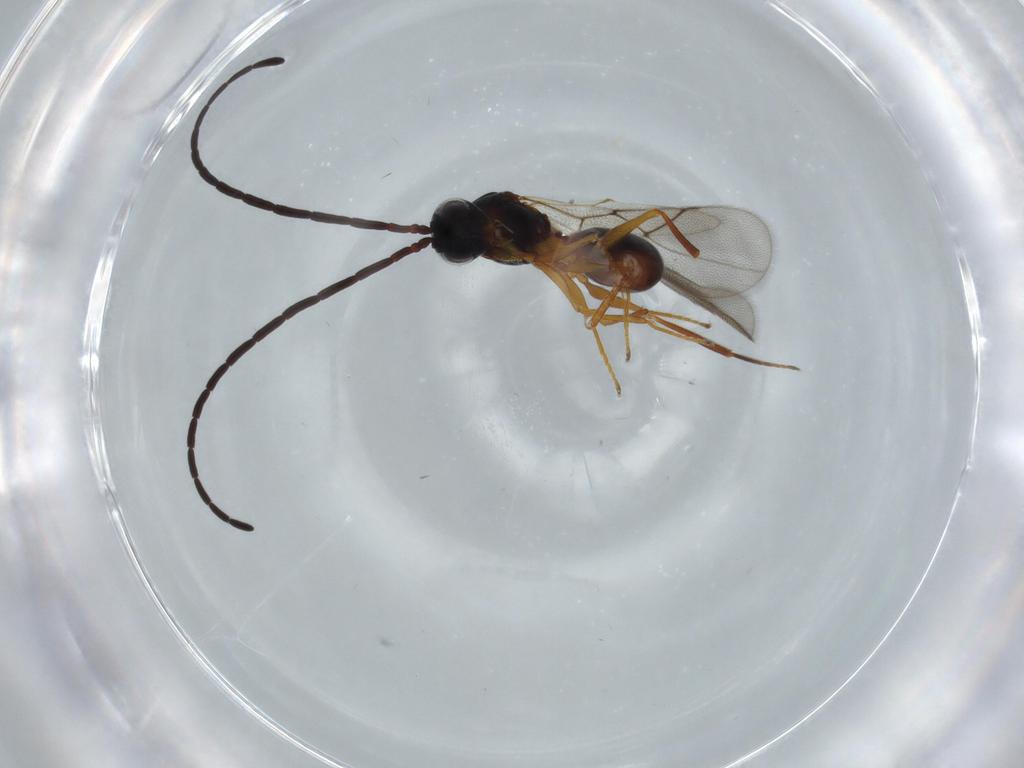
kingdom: Animalia
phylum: Arthropoda
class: Insecta
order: Hymenoptera
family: Figitidae
